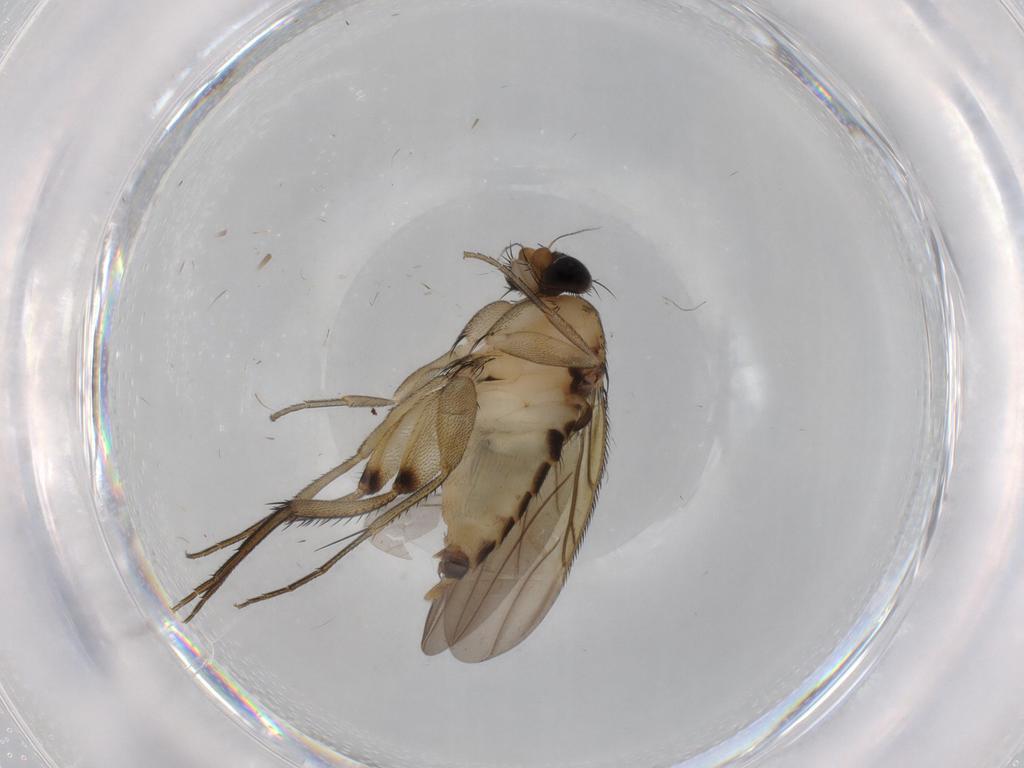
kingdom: Animalia
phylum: Arthropoda
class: Insecta
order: Diptera
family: Phoridae
